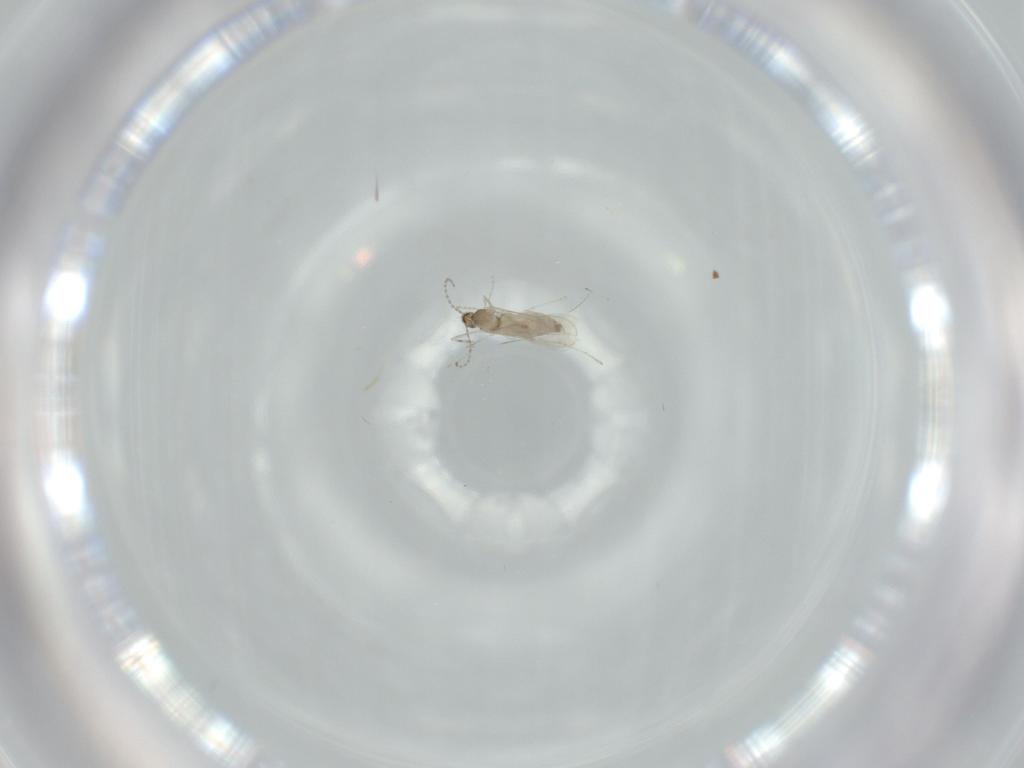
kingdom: Animalia
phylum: Arthropoda
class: Insecta
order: Diptera
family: Cecidomyiidae
